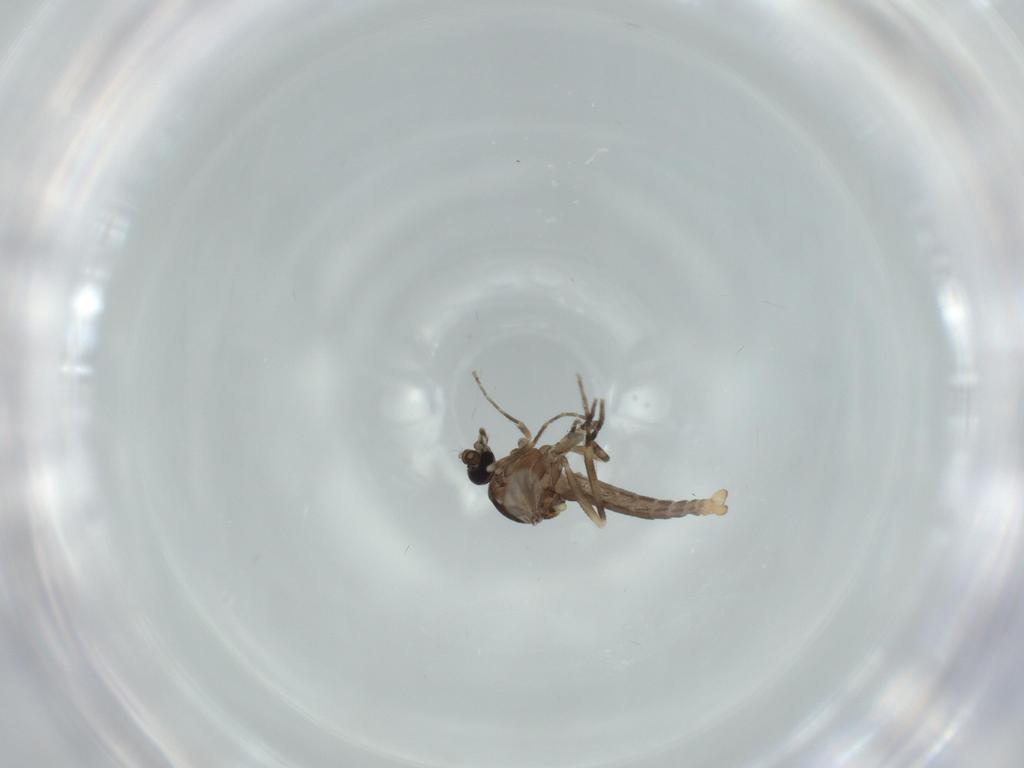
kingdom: Animalia
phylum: Arthropoda
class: Insecta
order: Diptera
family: Ceratopogonidae
